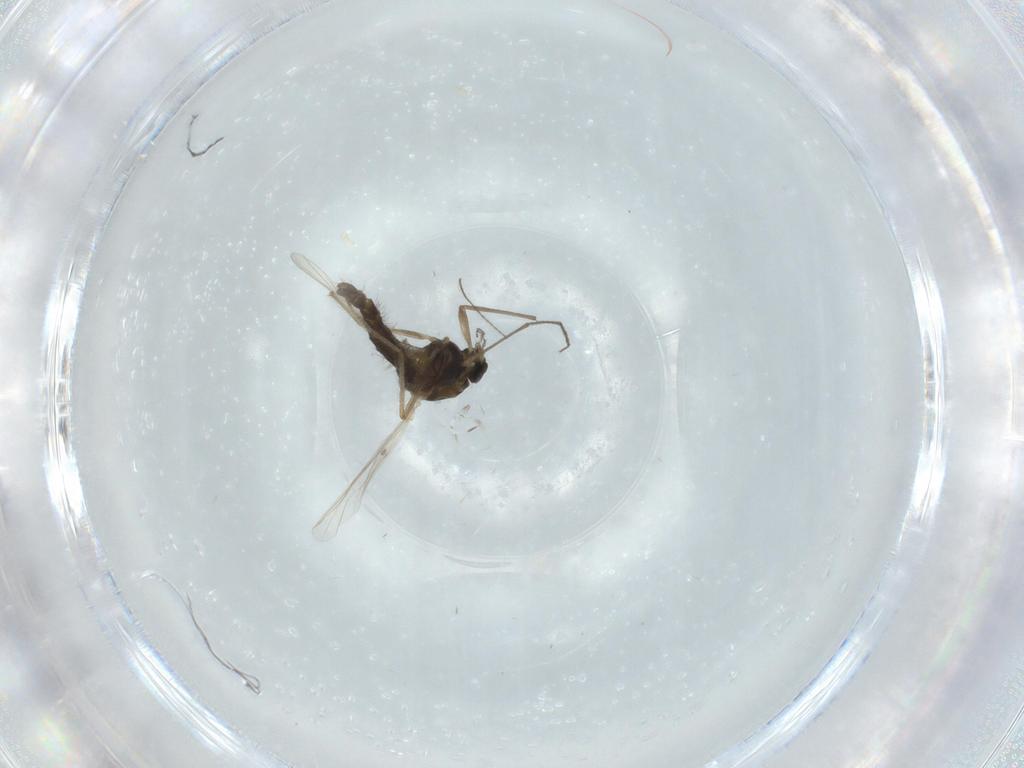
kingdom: Animalia
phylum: Arthropoda
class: Insecta
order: Diptera
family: Chironomidae
